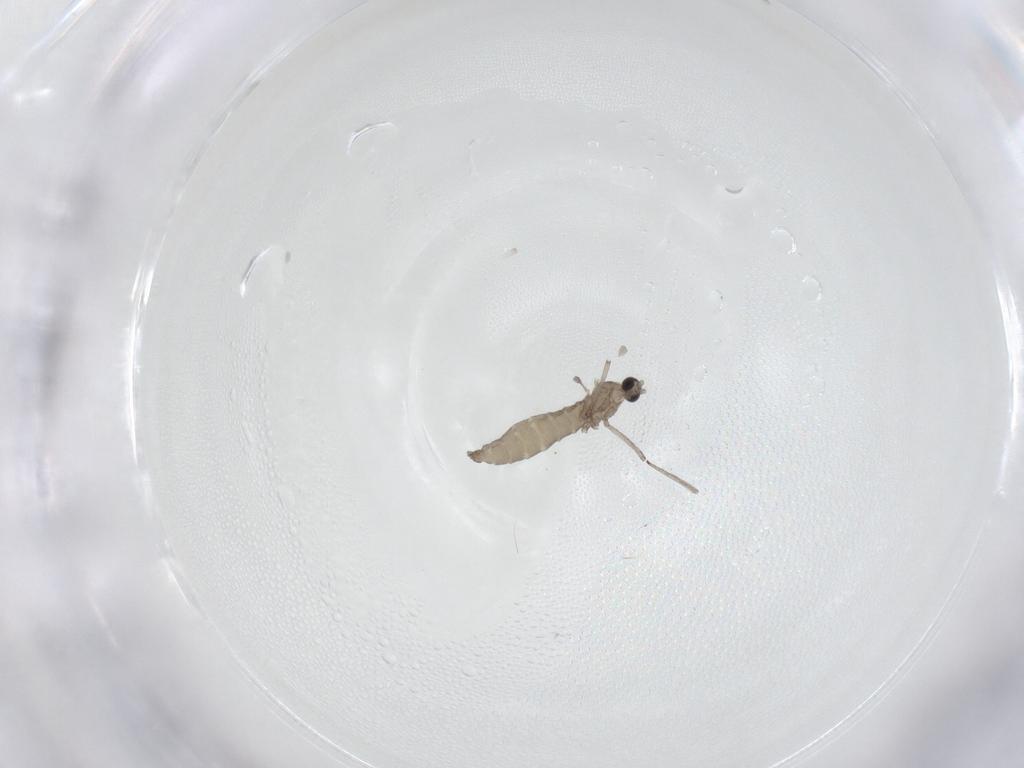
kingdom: Animalia
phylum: Arthropoda
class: Insecta
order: Diptera
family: Cecidomyiidae
